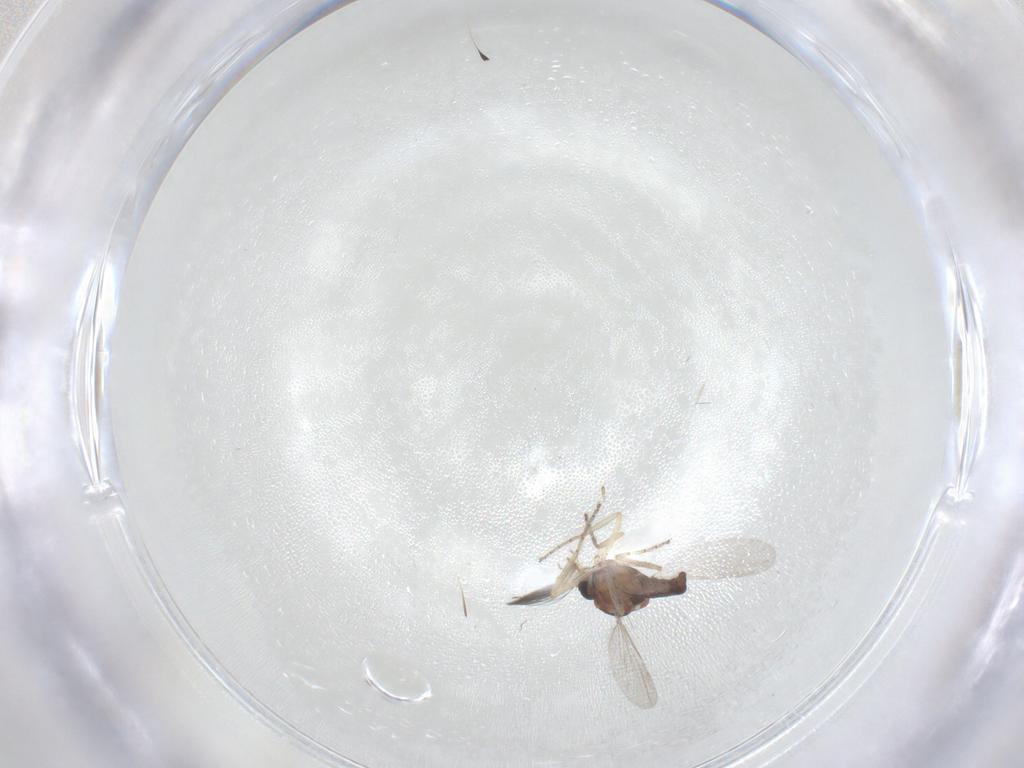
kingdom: Animalia
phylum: Arthropoda
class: Insecta
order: Diptera
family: Ceratopogonidae
